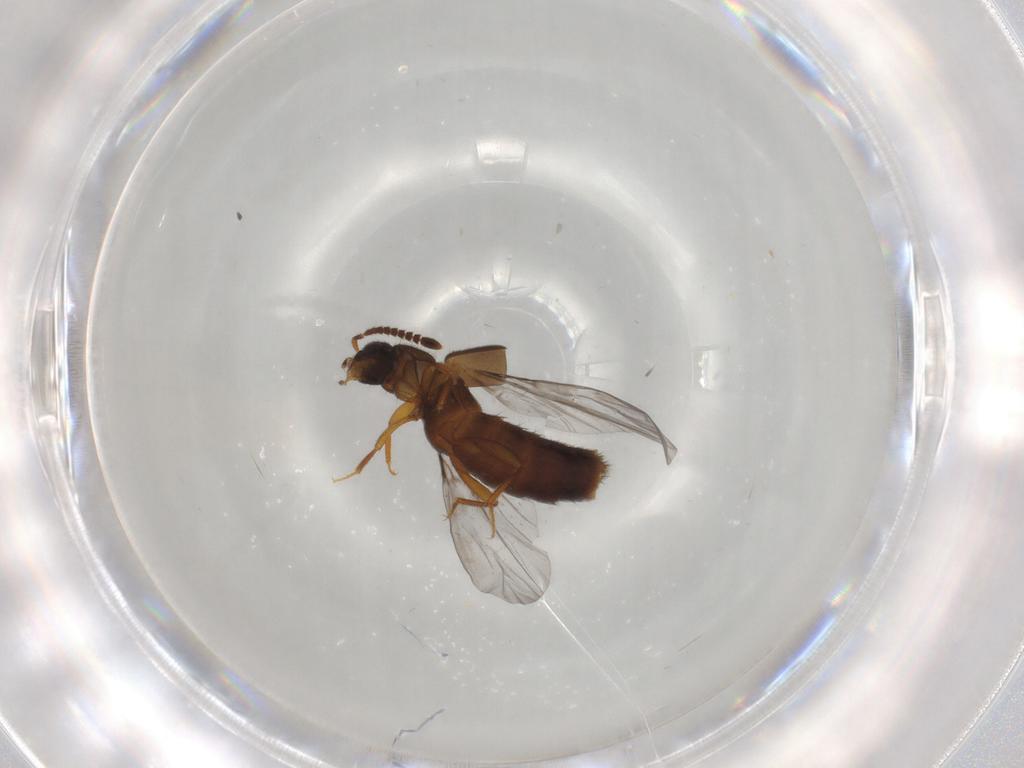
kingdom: Animalia
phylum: Arthropoda
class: Insecta
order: Coleoptera
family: Staphylinidae
